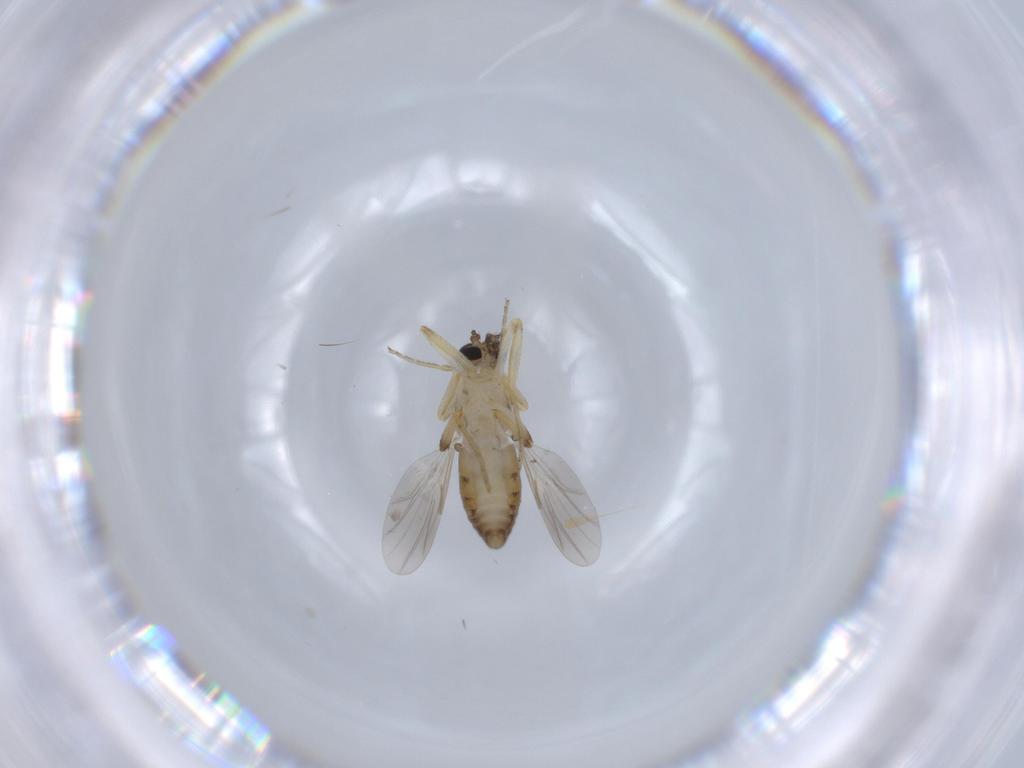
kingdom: Animalia
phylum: Arthropoda
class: Insecta
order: Diptera
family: Ceratopogonidae
